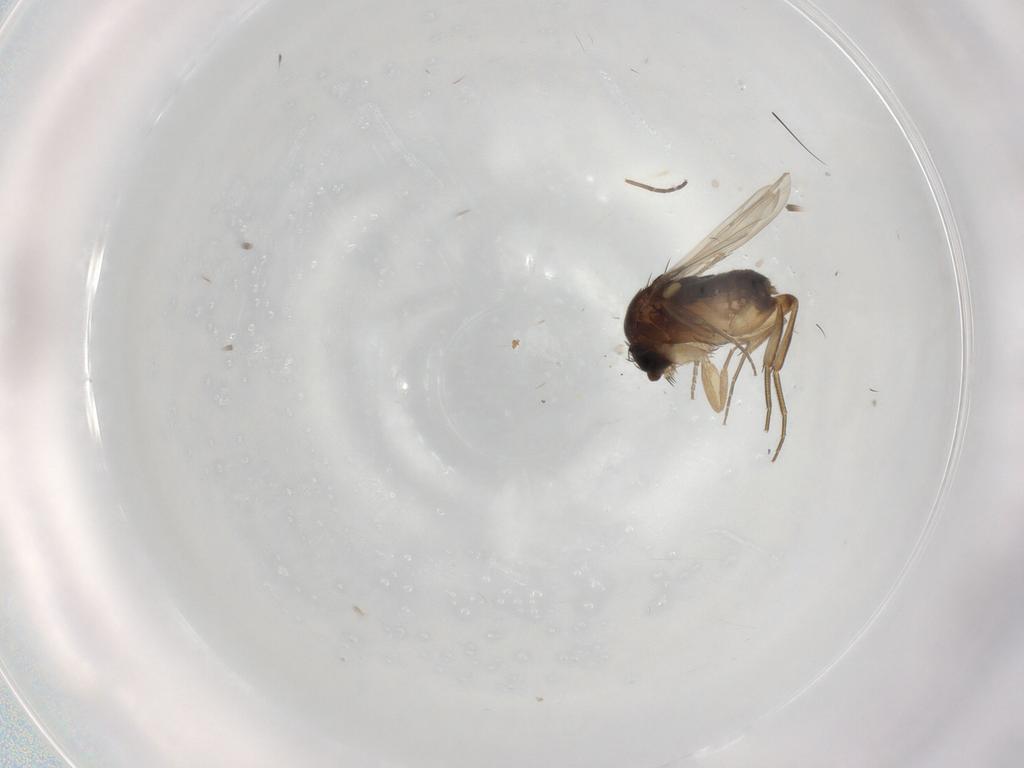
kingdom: Animalia
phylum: Arthropoda
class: Insecta
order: Diptera
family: Phoridae
